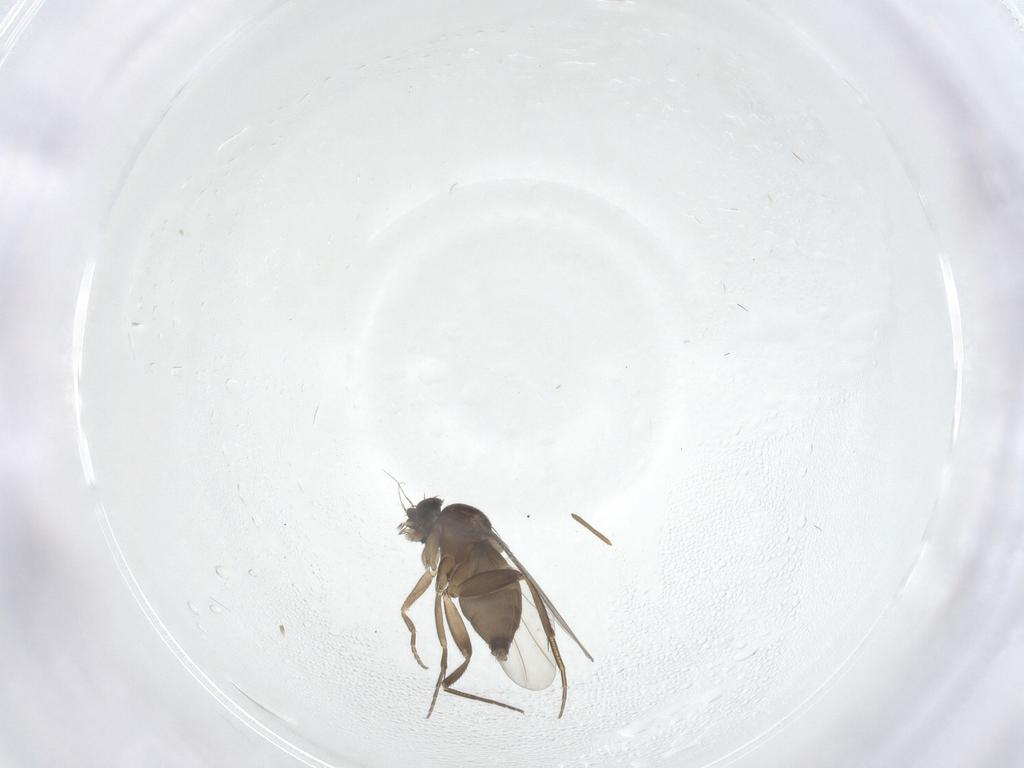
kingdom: Animalia
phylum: Arthropoda
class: Insecta
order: Diptera
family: Phoridae
